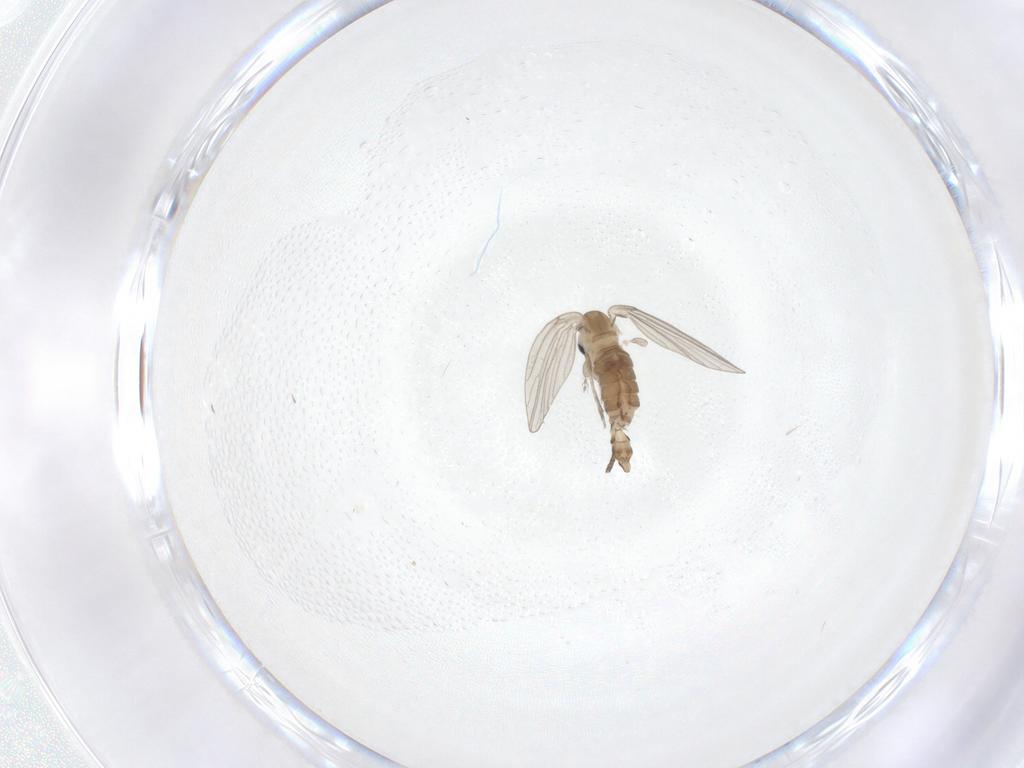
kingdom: Animalia
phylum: Arthropoda
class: Insecta
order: Diptera
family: Psychodidae
